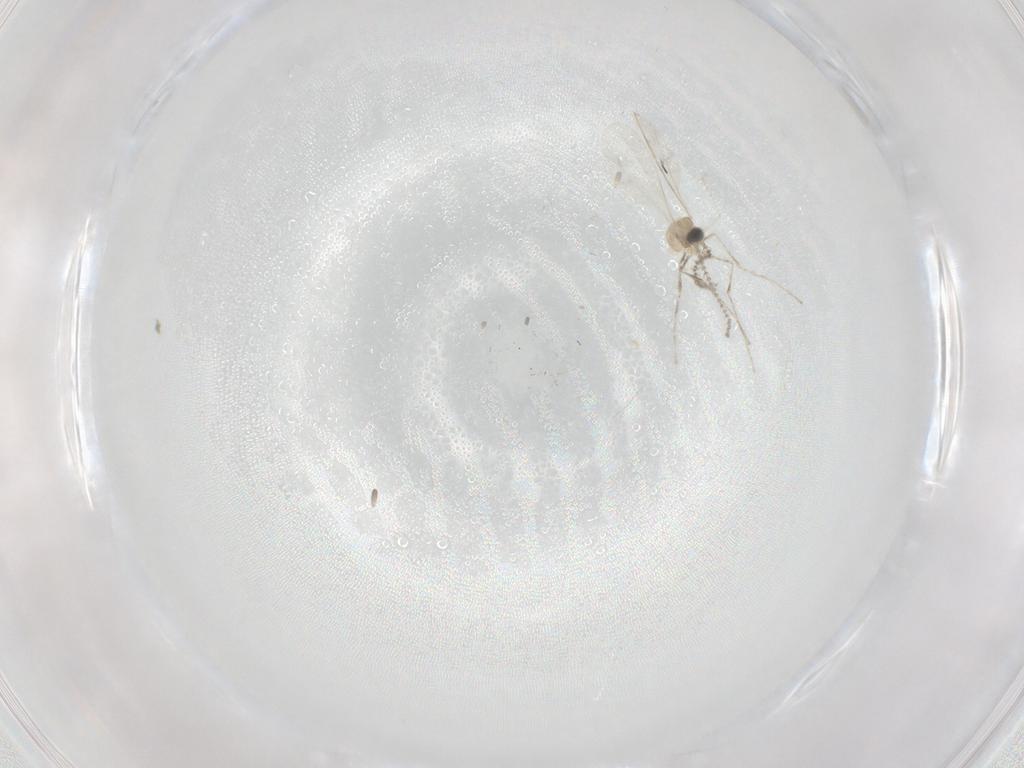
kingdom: Animalia
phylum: Arthropoda
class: Insecta
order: Diptera
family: Cecidomyiidae
